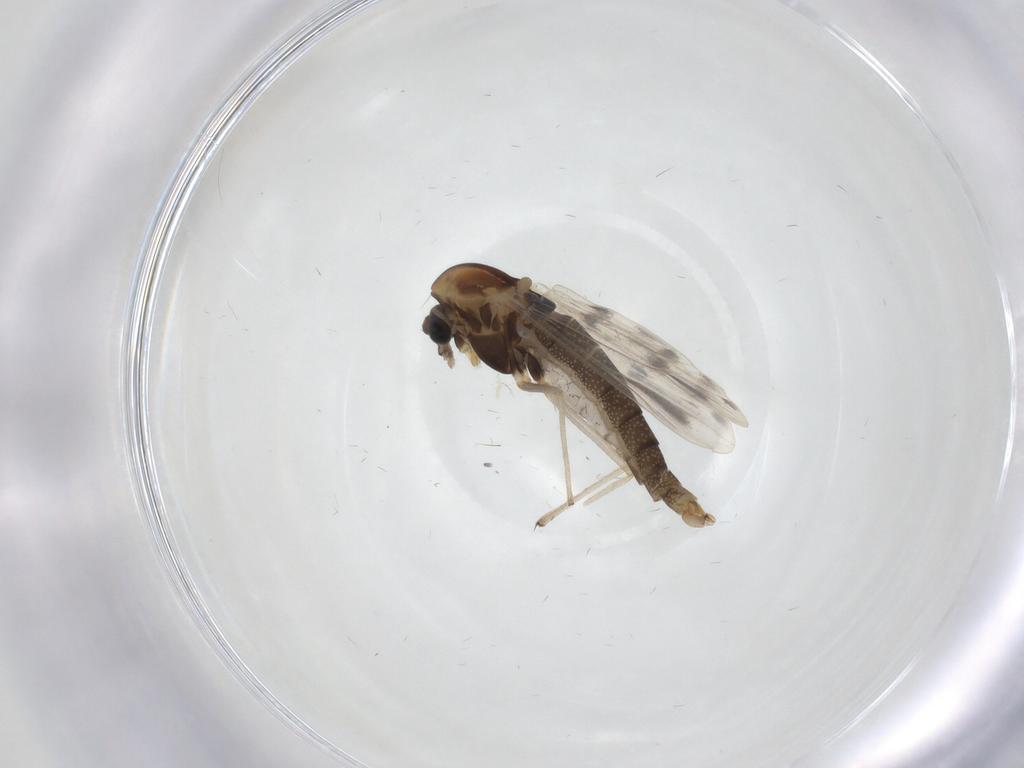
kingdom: Animalia
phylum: Arthropoda
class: Insecta
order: Diptera
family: Chironomidae
